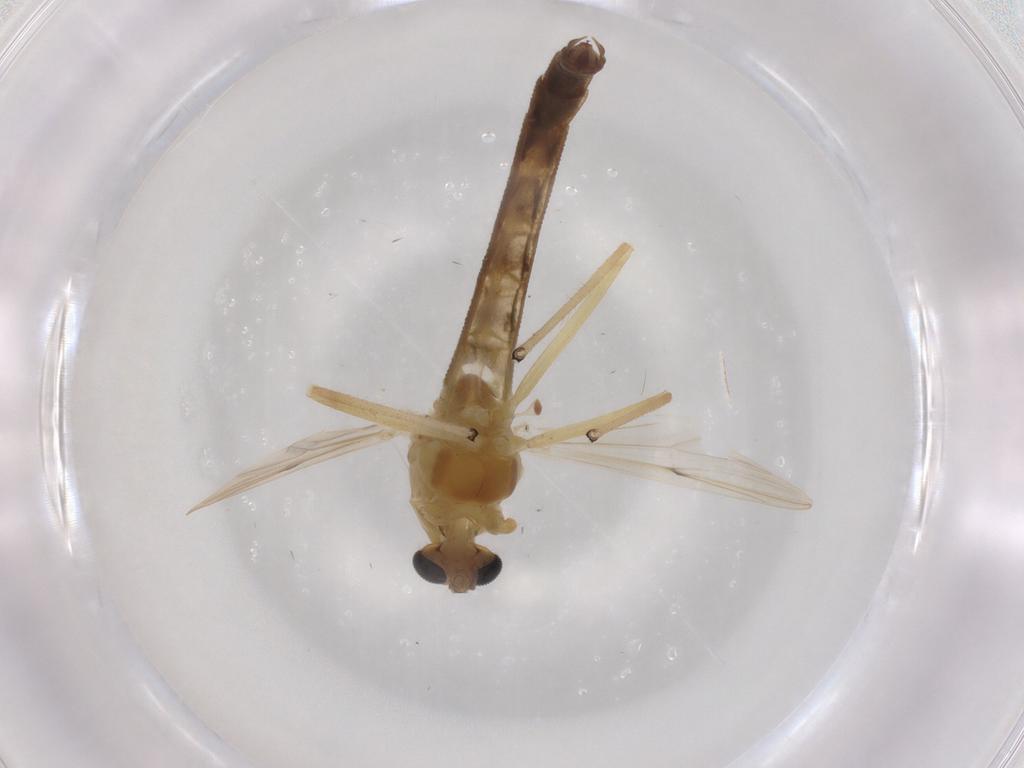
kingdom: Animalia
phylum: Arthropoda
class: Insecta
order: Diptera
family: Chironomidae
